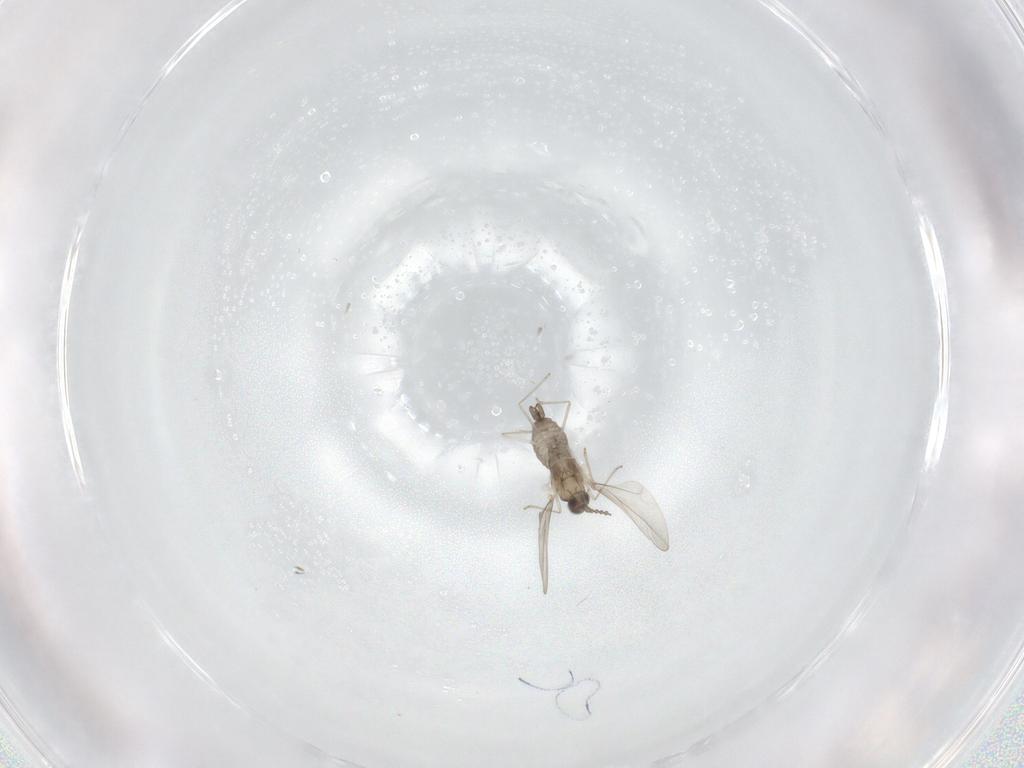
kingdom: Animalia
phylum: Arthropoda
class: Insecta
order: Diptera
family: Cecidomyiidae
